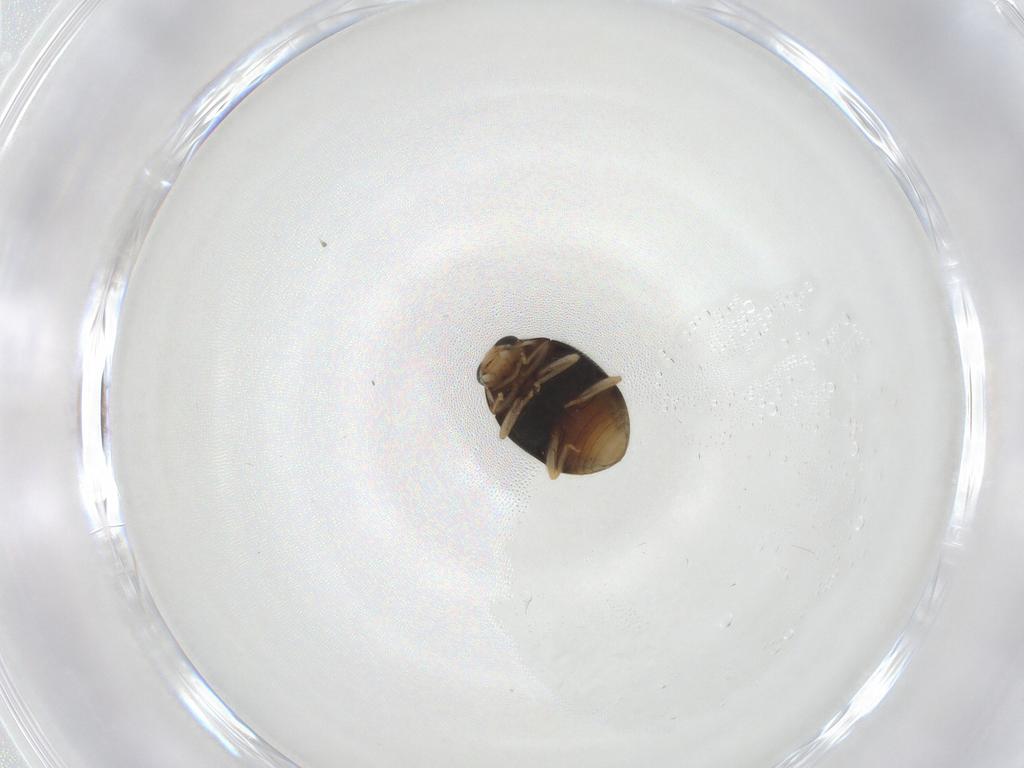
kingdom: Animalia
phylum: Arthropoda
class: Insecta
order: Coleoptera
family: Coccinellidae
